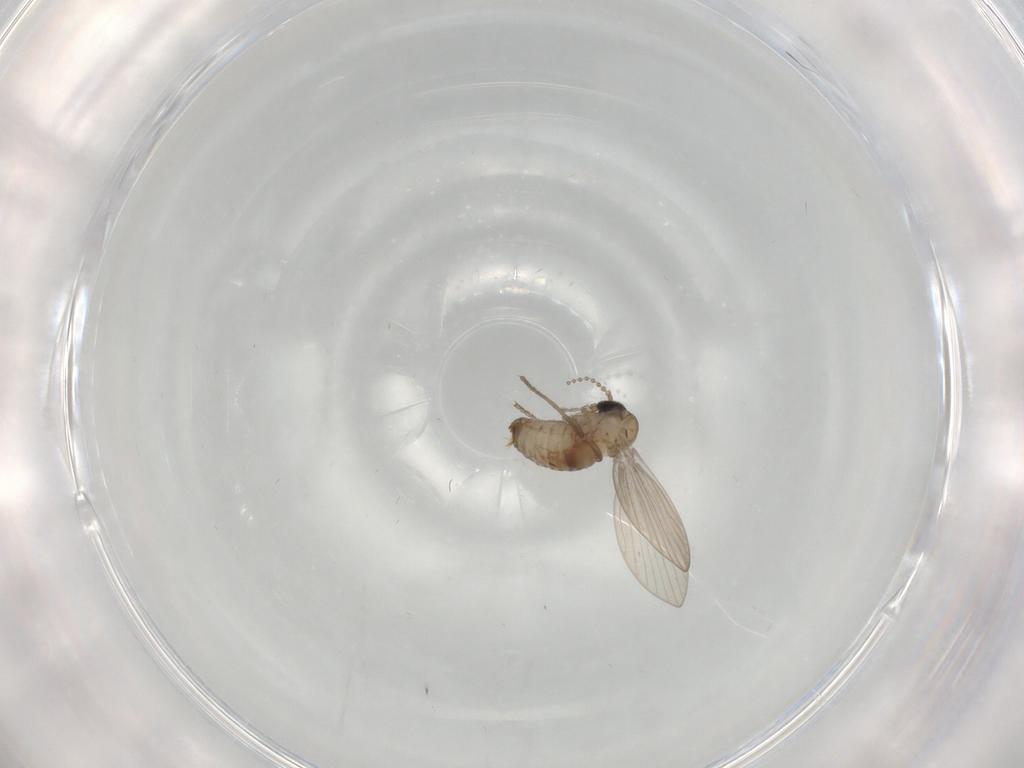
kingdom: Animalia
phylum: Arthropoda
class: Insecta
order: Diptera
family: Psychodidae
